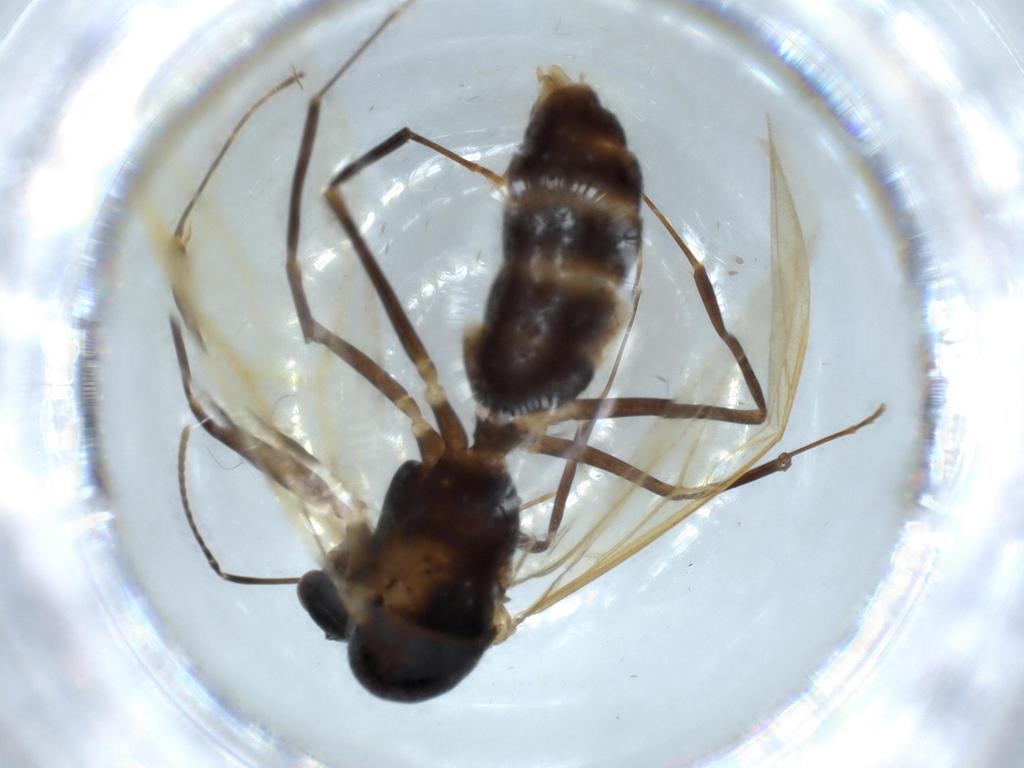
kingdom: Animalia
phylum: Arthropoda
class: Insecta
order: Hymenoptera
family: Formicidae
